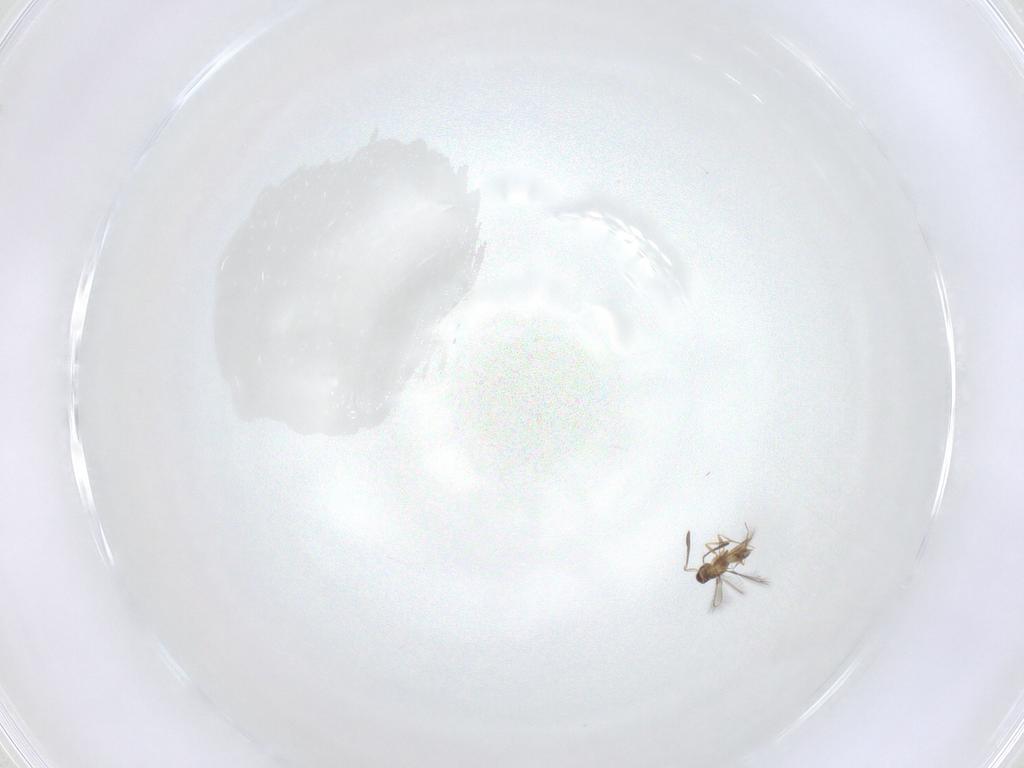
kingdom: Animalia
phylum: Arthropoda
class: Insecta
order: Hymenoptera
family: Mymaridae
